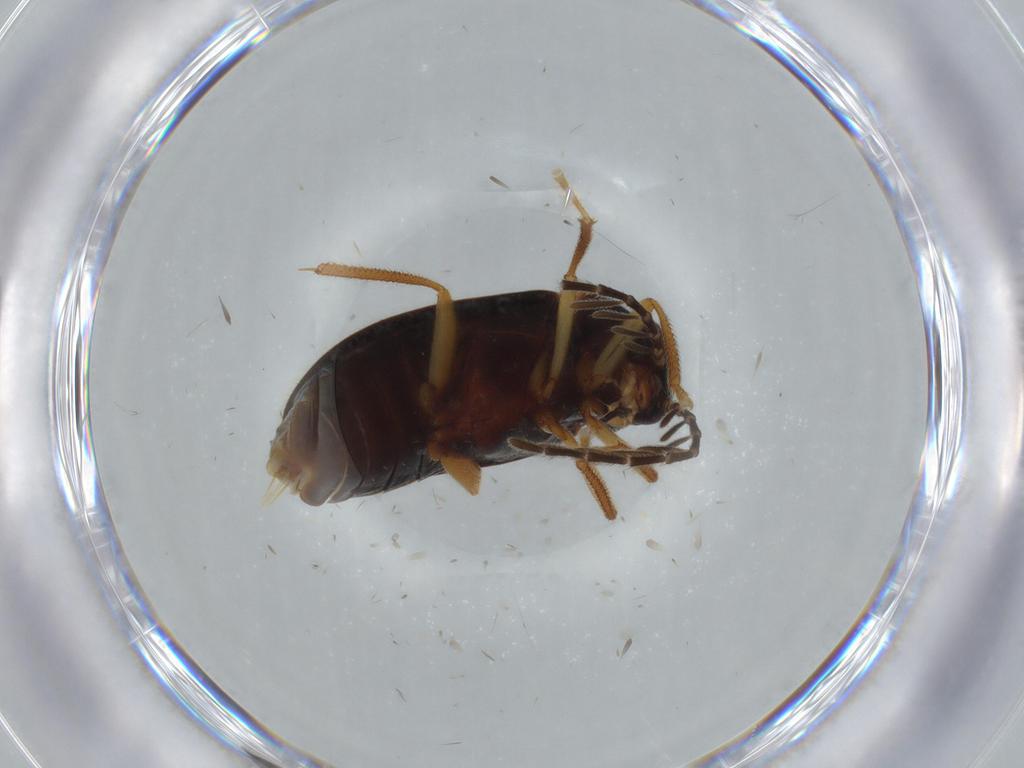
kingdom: Animalia
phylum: Arthropoda
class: Insecta
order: Coleoptera
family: Ptilodactylidae
